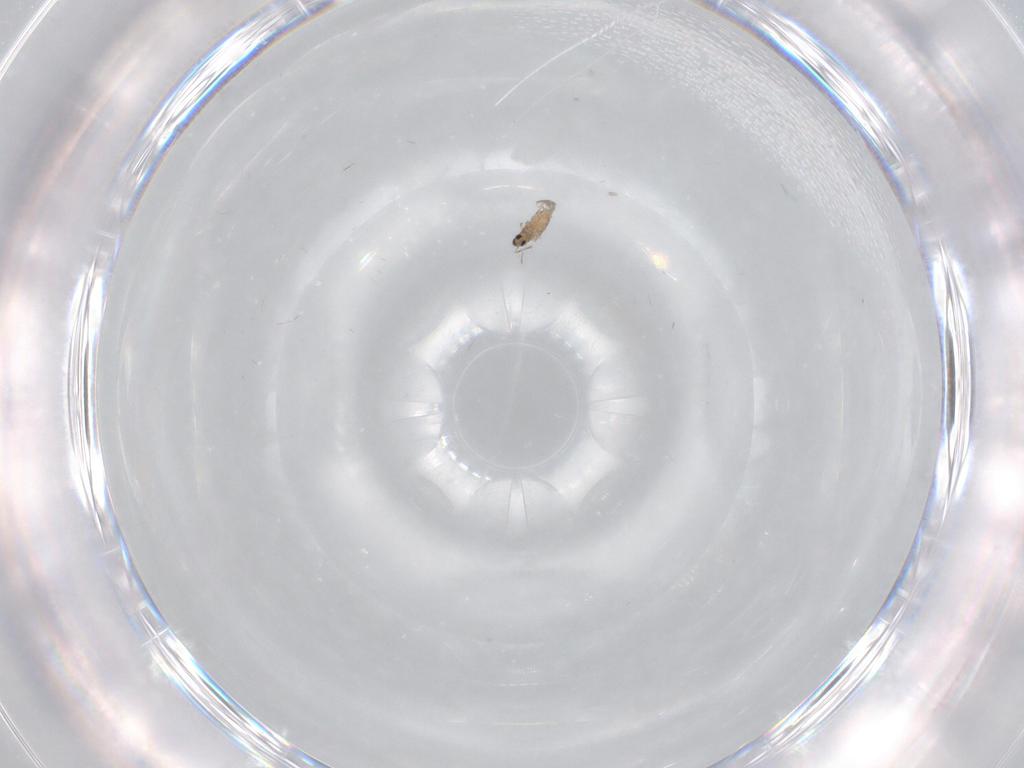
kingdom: Animalia
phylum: Arthropoda
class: Insecta
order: Diptera
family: Cecidomyiidae
